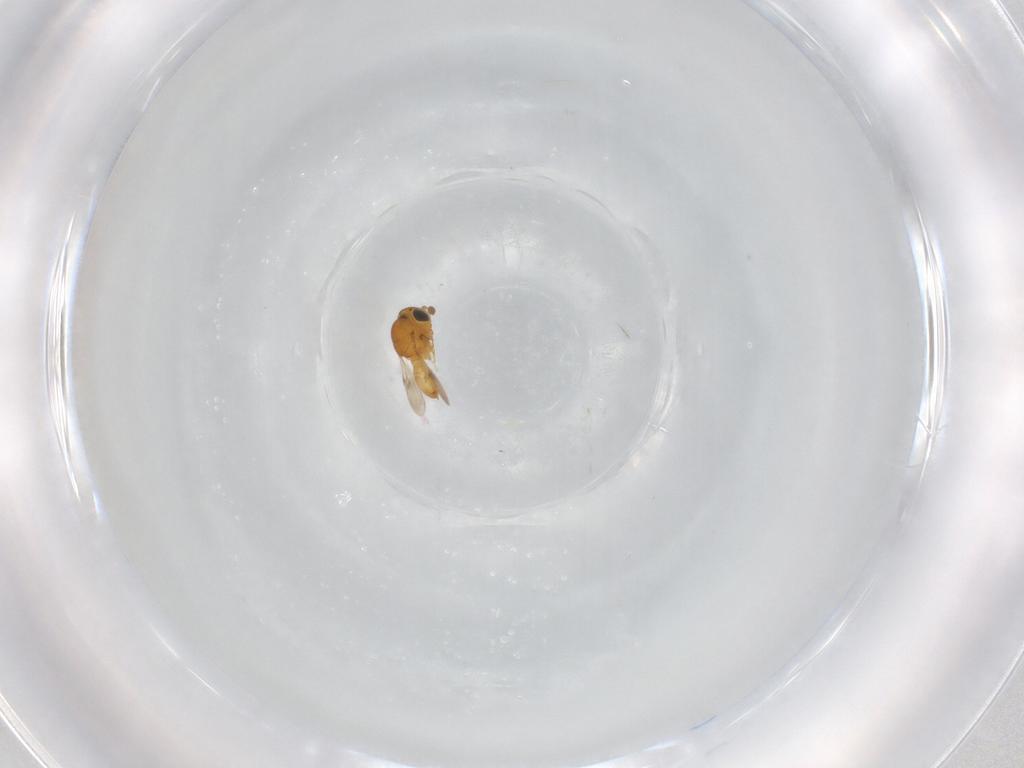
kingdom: Animalia
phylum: Arthropoda
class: Insecta
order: Hymenoptera
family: Scelionidae
